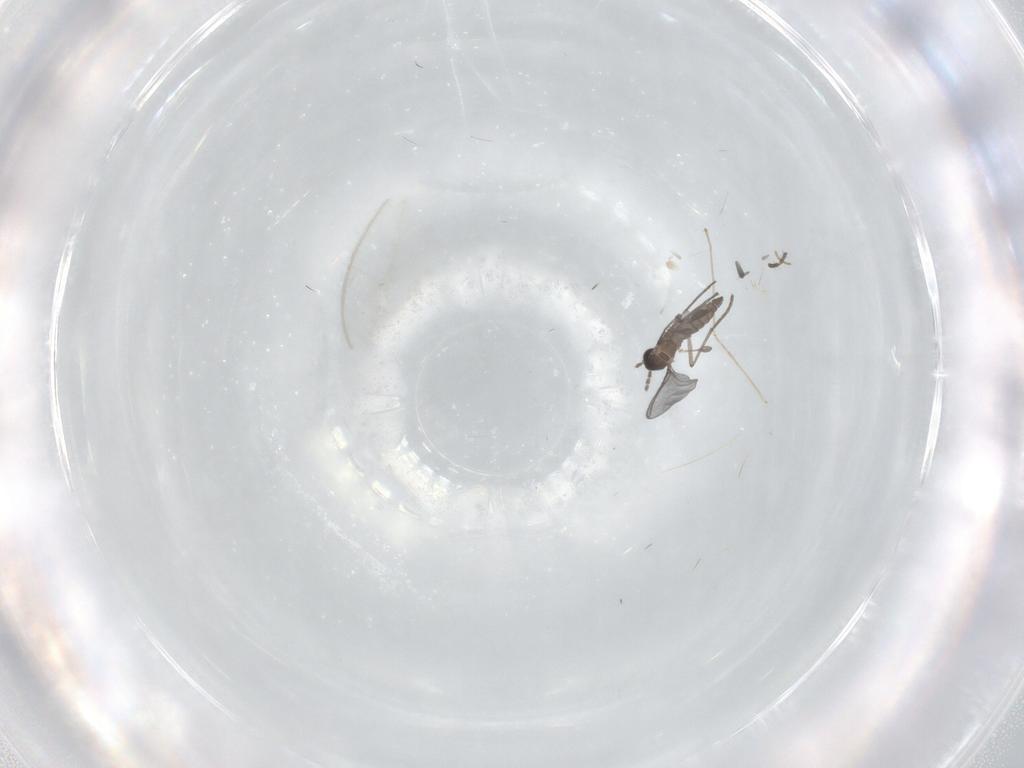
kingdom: Animalia
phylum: Arthropoda
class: Insecta
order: Diptera
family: Sciaridae
